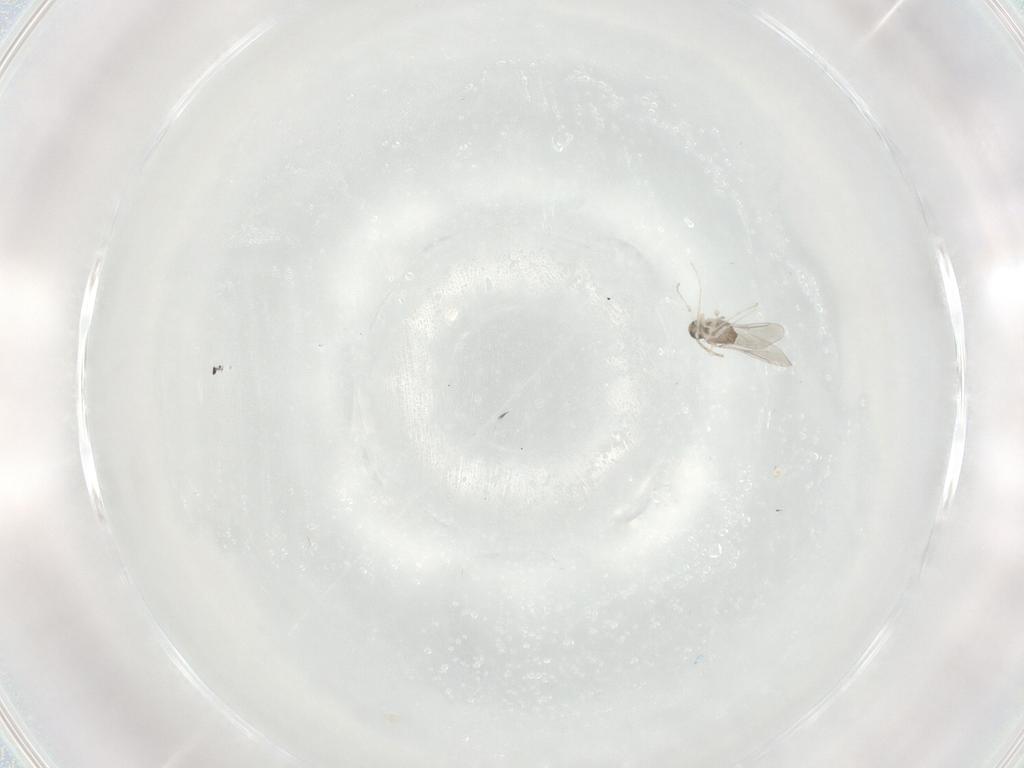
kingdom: Animalia
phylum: Arthropoda
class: Insecta
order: Diptera
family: Cecidomyiidae
